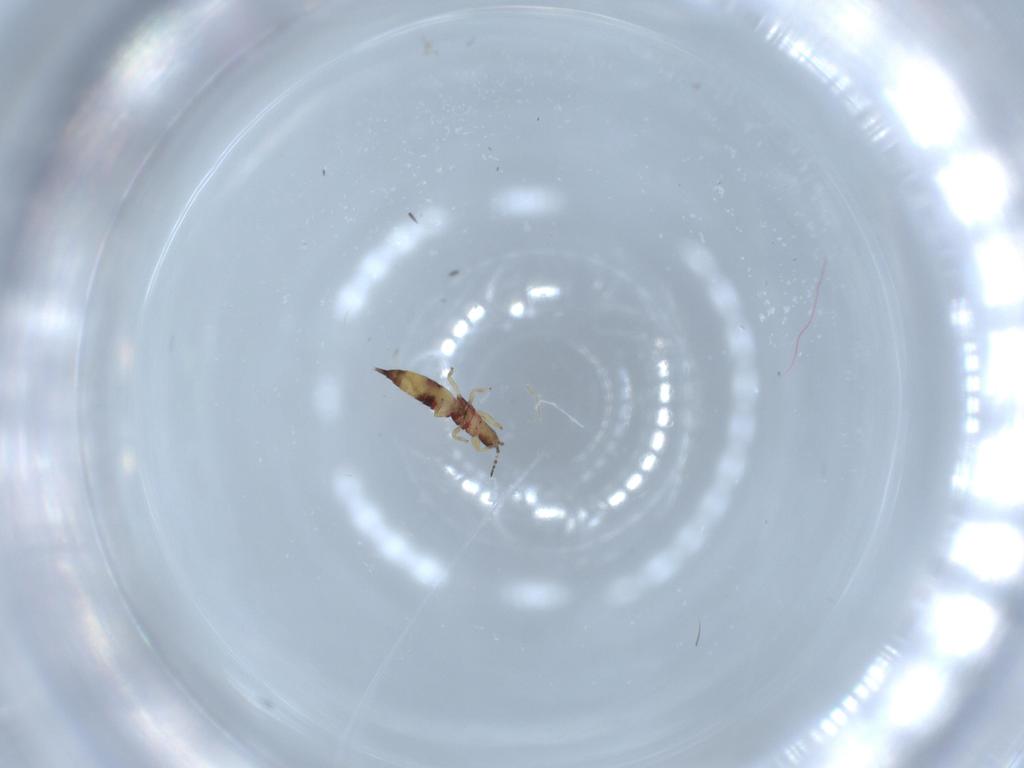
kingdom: Animalia
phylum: Arthropoda
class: Insecta
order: Thysanoptera
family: Phlaeothripidae
